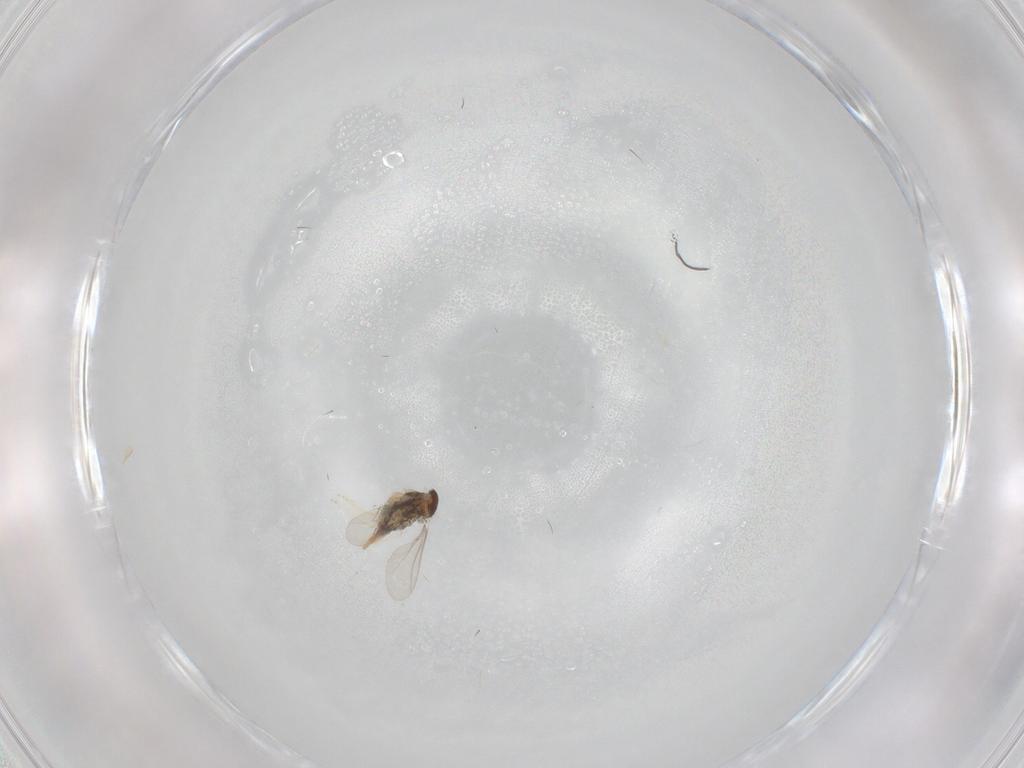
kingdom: Animalia
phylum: Arthropoda
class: Insecta
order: Diptera
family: Cecidomyiidae
